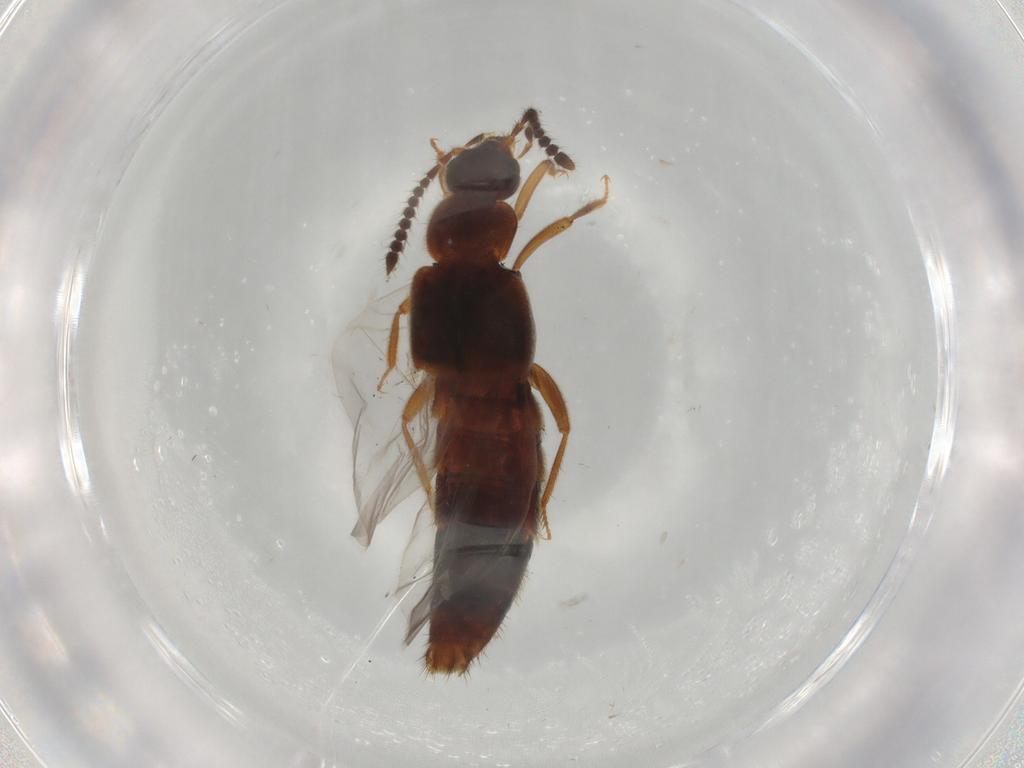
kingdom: Animalia
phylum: Arthropoda
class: Insecta
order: Coleoptera
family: Staphylinidae
